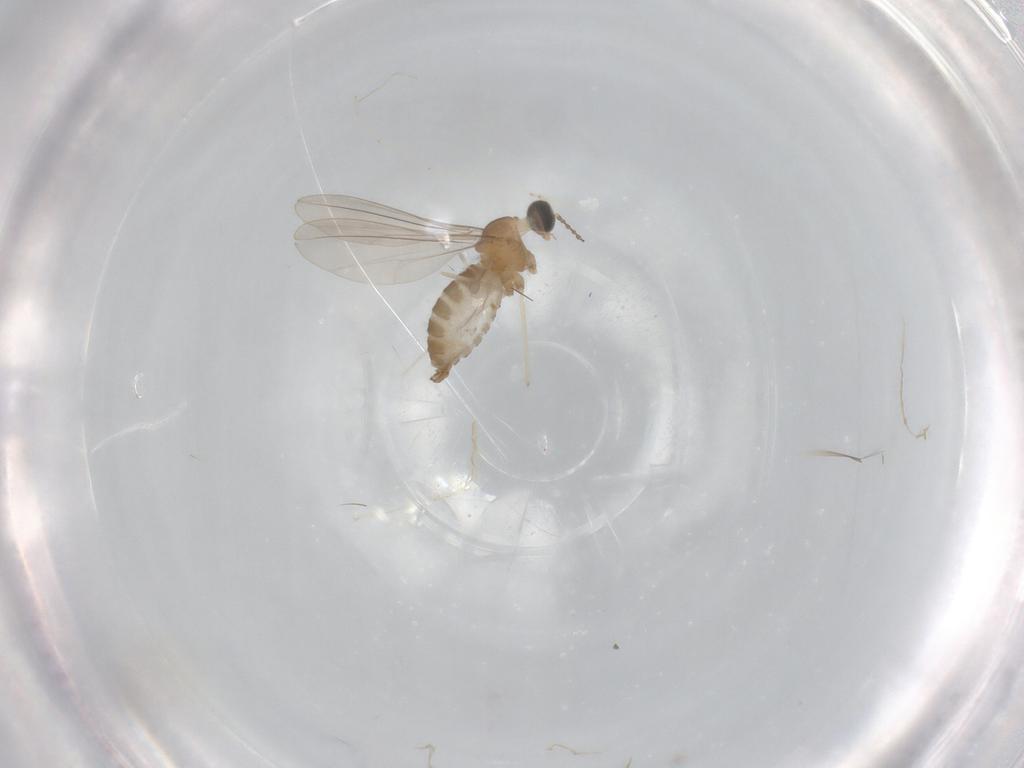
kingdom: Animalia
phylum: Arthropoda
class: Insecta
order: Diptera
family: Cecidomyiidae
